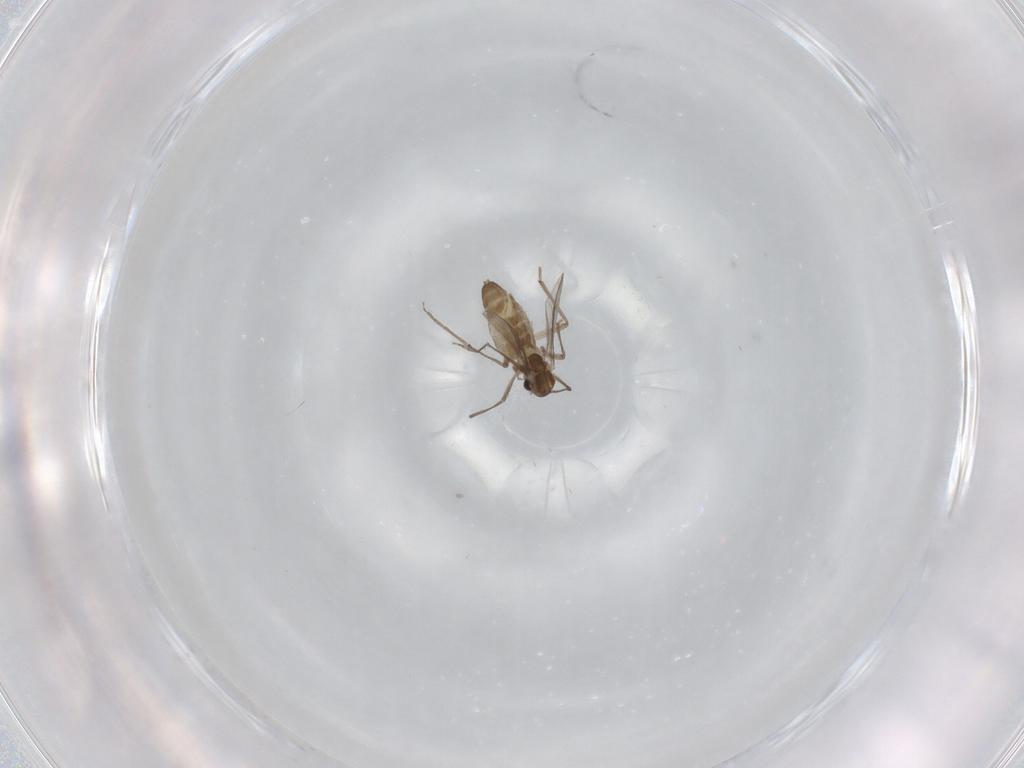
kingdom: Animalia
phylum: Arthropoda
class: Insecta
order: Diptera
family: Chironomidae
